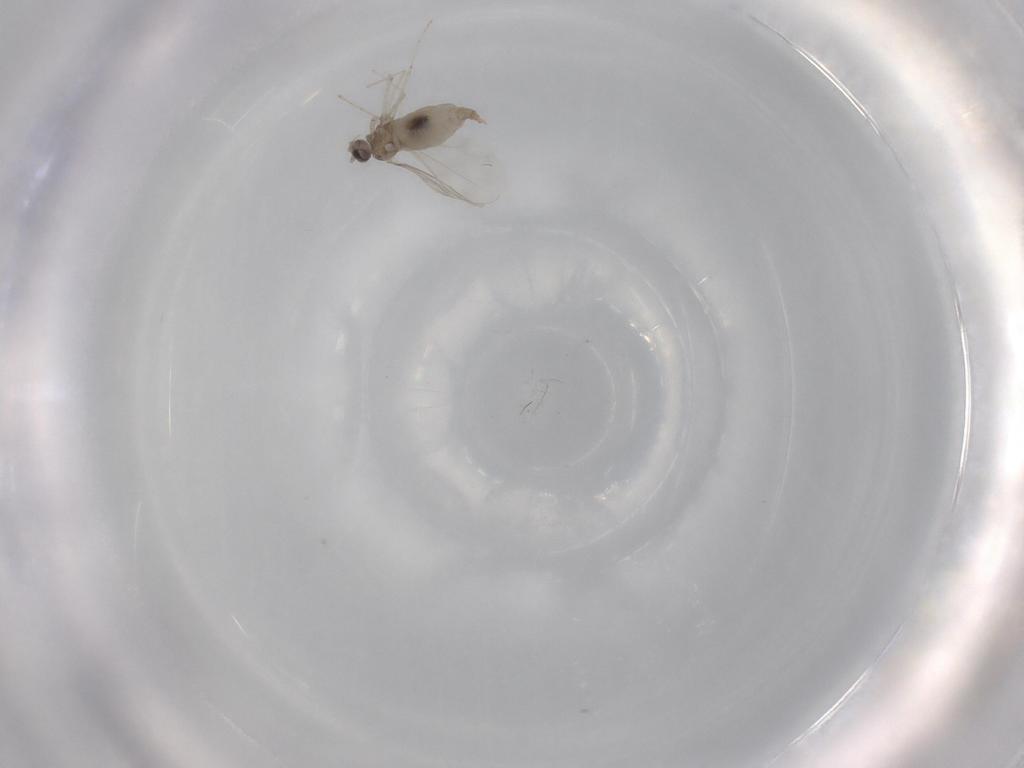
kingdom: Animalia
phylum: Arthropoda
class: Insecta
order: Diptera
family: Cecidomyiidae
